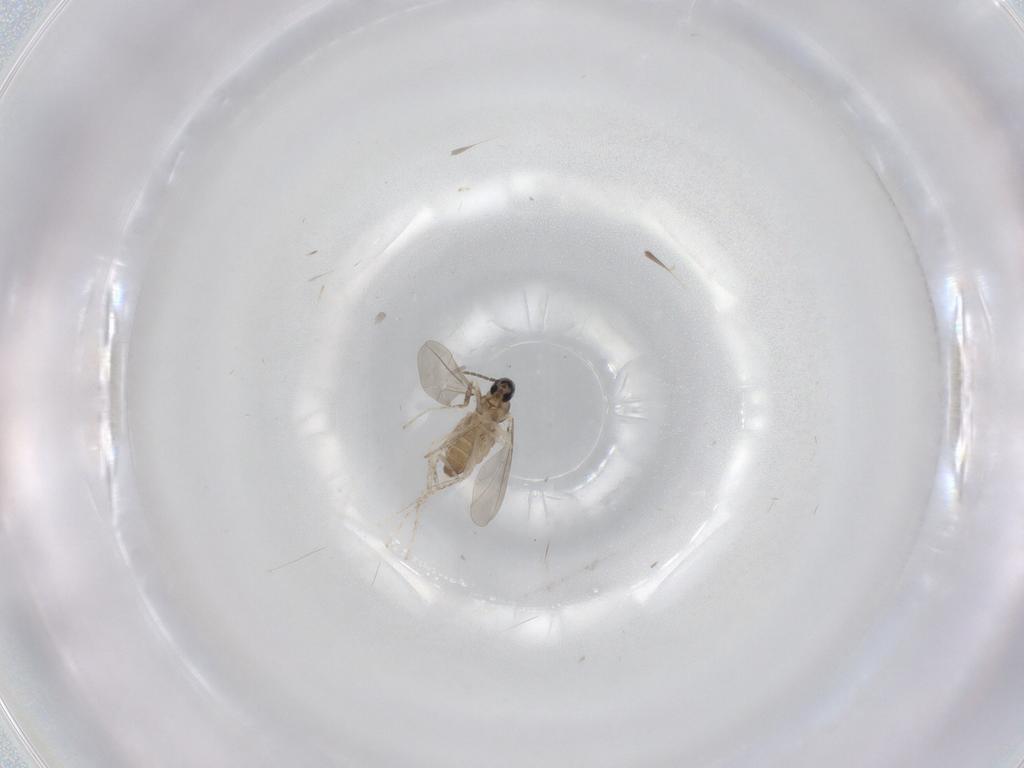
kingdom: Animalia
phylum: Arthropoda
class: Insecta
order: Diptera
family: Cecidomyiidae
